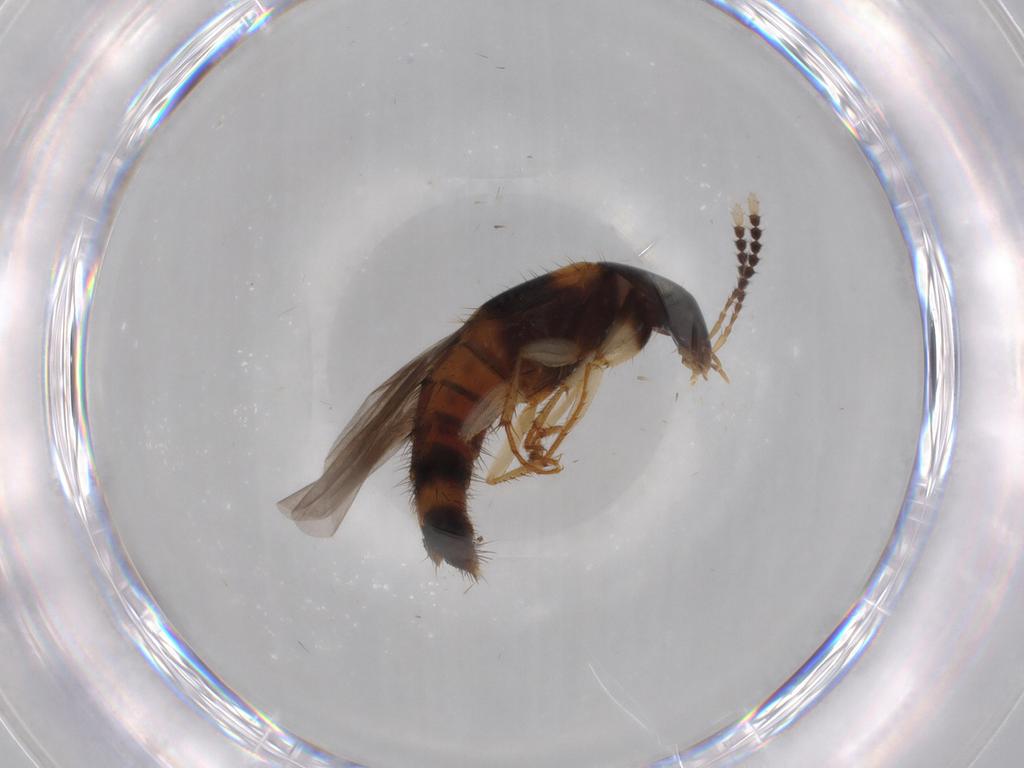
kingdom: Animalia
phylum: Arthropoda
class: Insecta
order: Coleoptera
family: Staphylinidae
